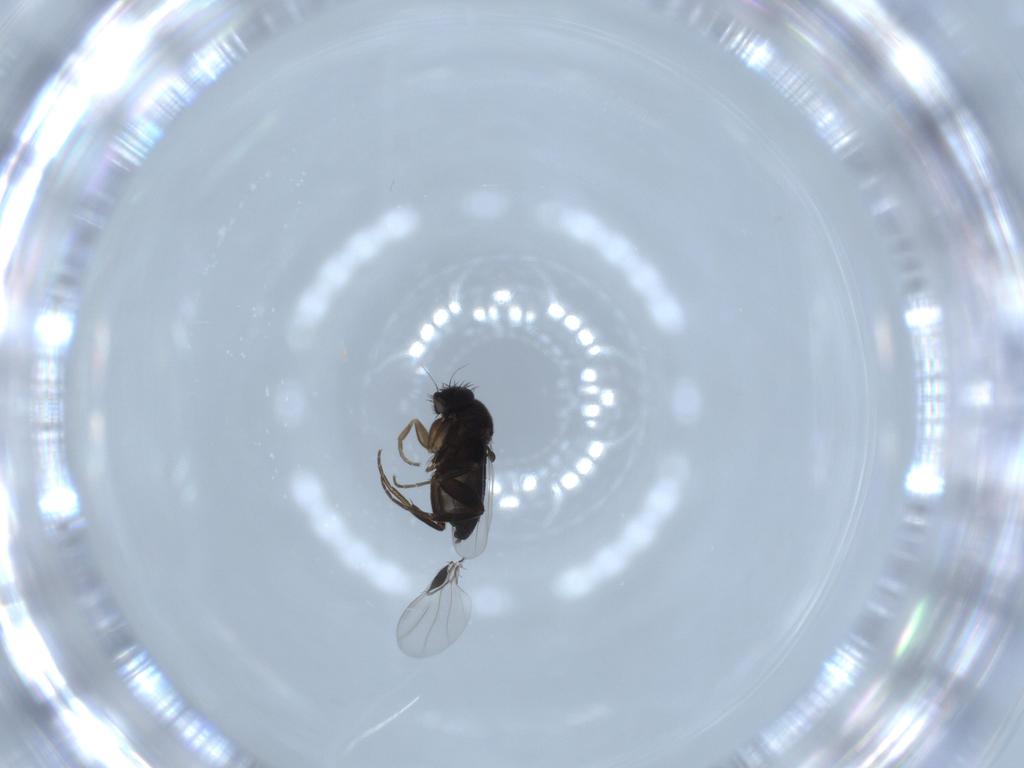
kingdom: Animalia
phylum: Arthropoda
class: Insecta
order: Diptera
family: Phoridae
